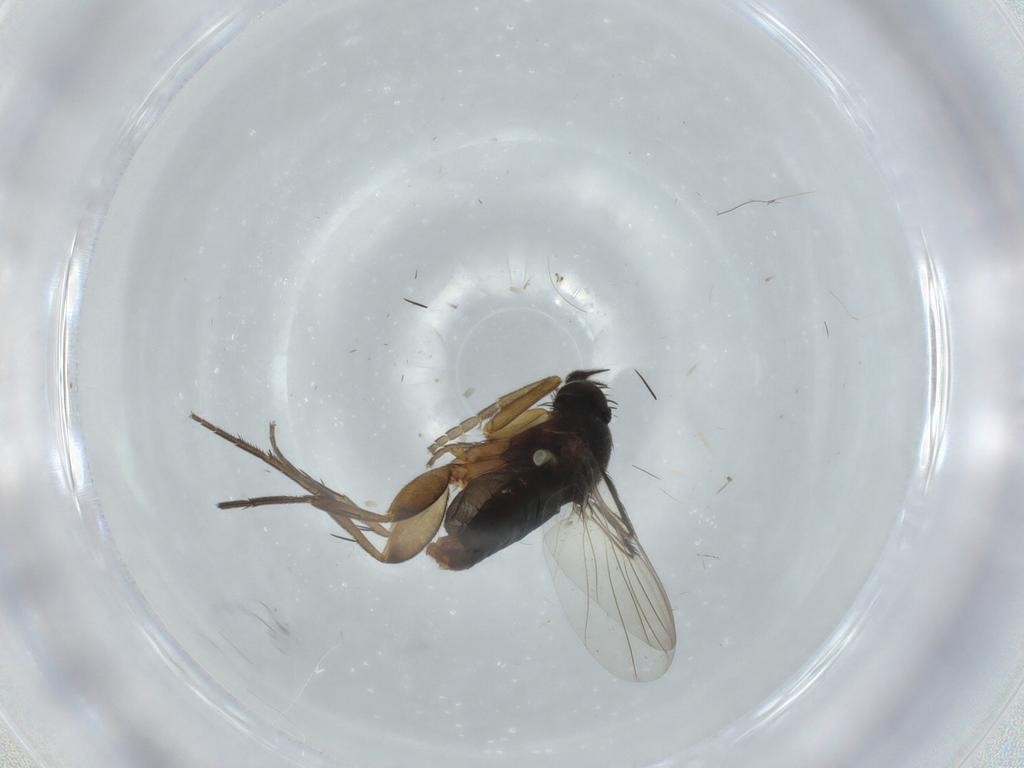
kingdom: Animalia
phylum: Arthropoda
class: Insecta
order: Diptera
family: Phoridae
